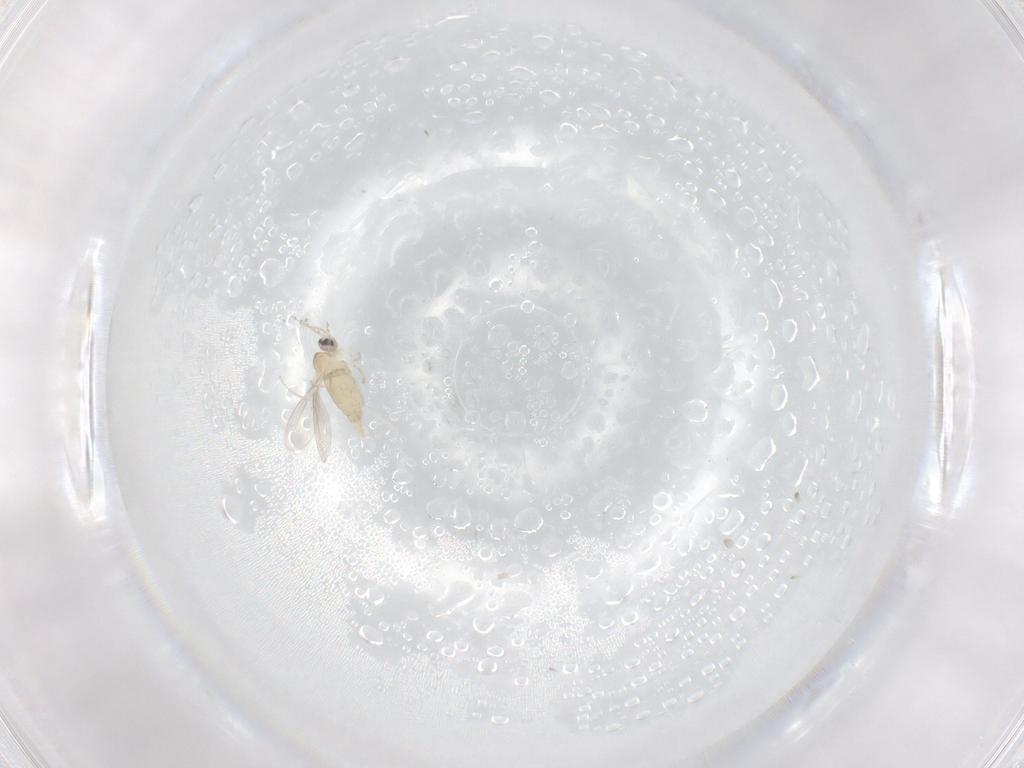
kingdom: Animalia
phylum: Arthropoda
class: Insecta
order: Diptera
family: Cecidomyiidae
